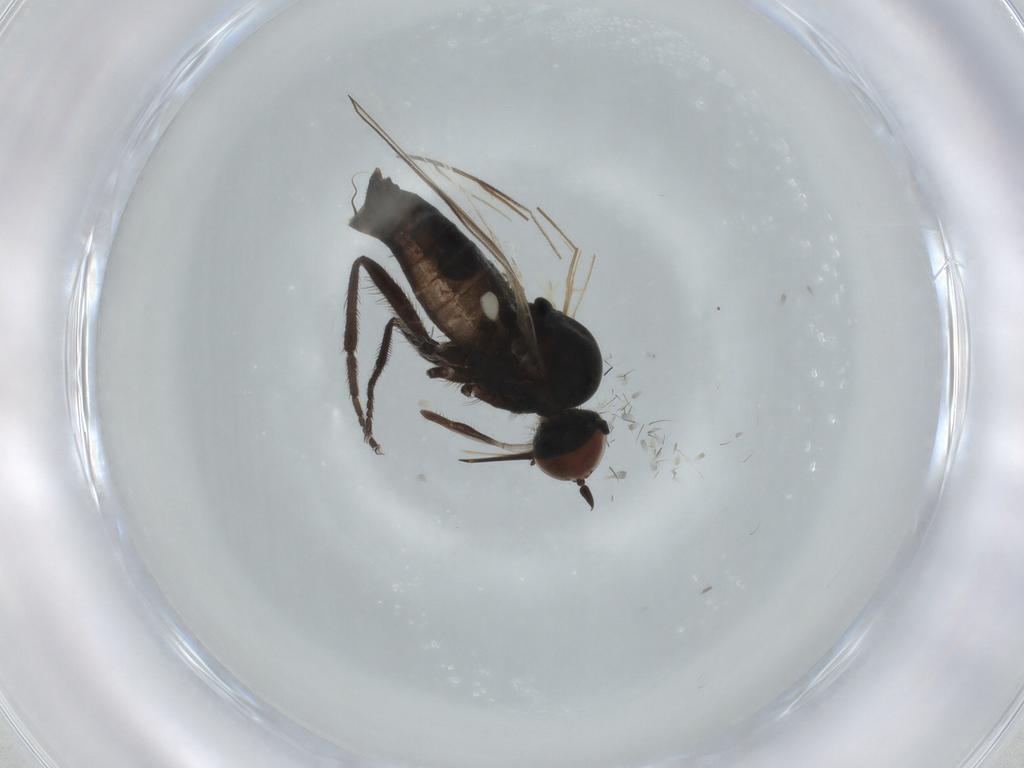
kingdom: Animalia
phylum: Arthropoda
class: Insecta
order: Diptera
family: Empididae
